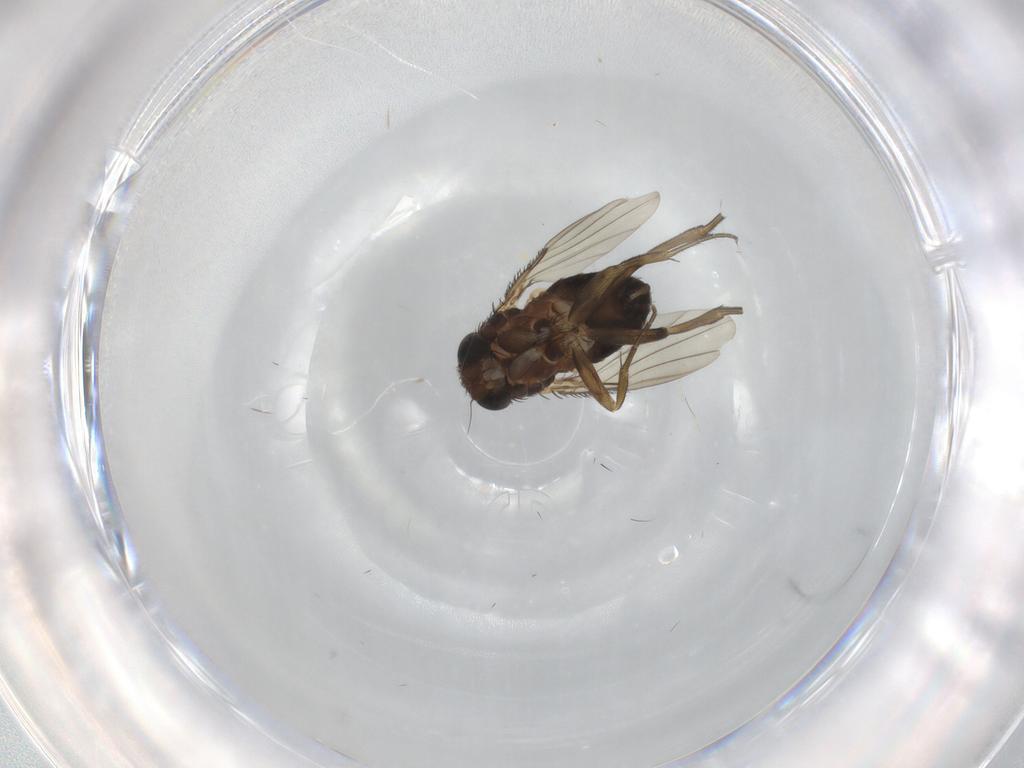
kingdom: Animalia
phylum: Arthropoda
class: Insecta
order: Diptera
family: Phoridae
